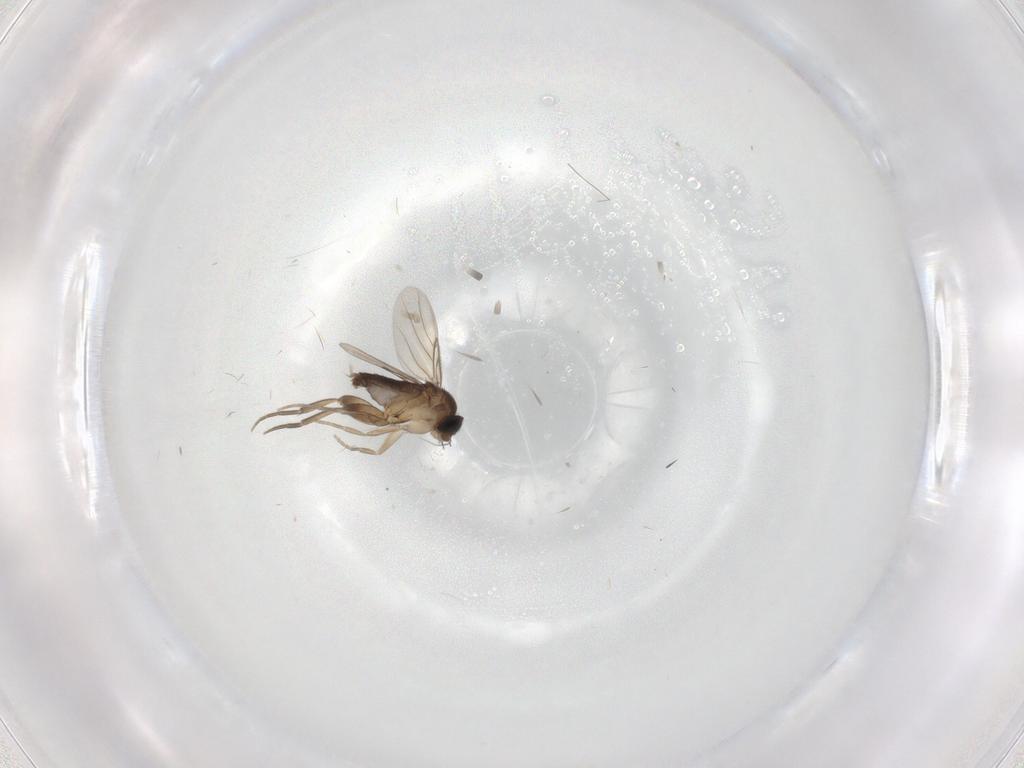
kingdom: Animalia
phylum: Arthropoda
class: Insecta
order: Diptera
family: Phoridae
